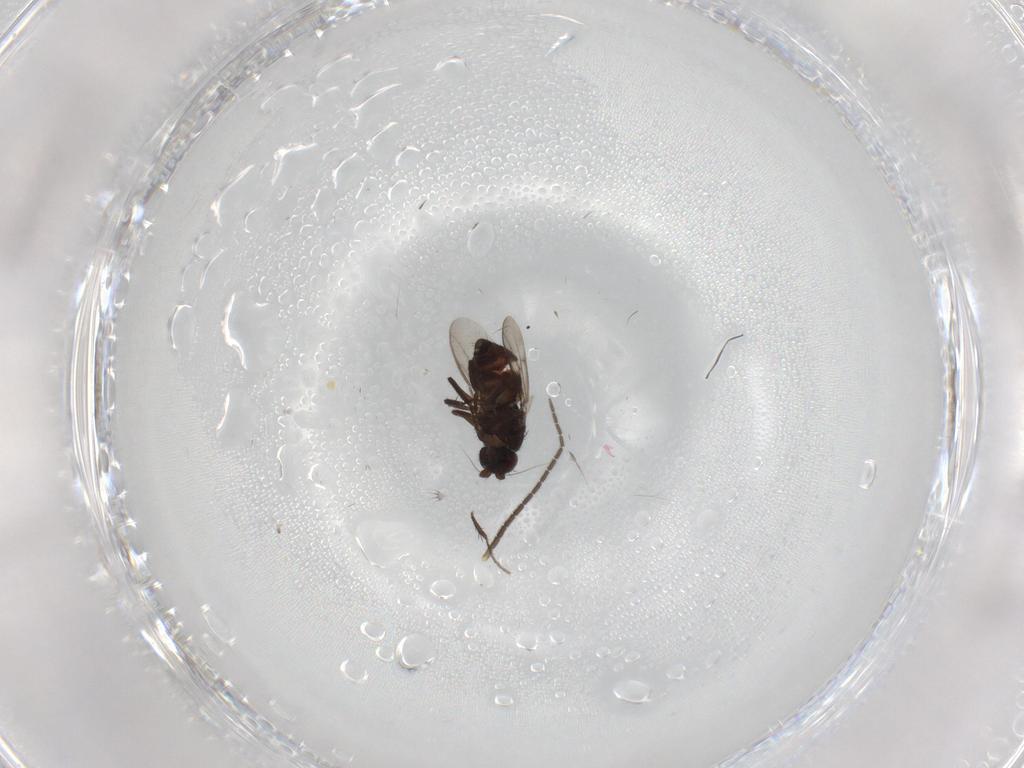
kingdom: Animalia
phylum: Arthropoda
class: Insecta
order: Diptera
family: Sphaeroceridae
